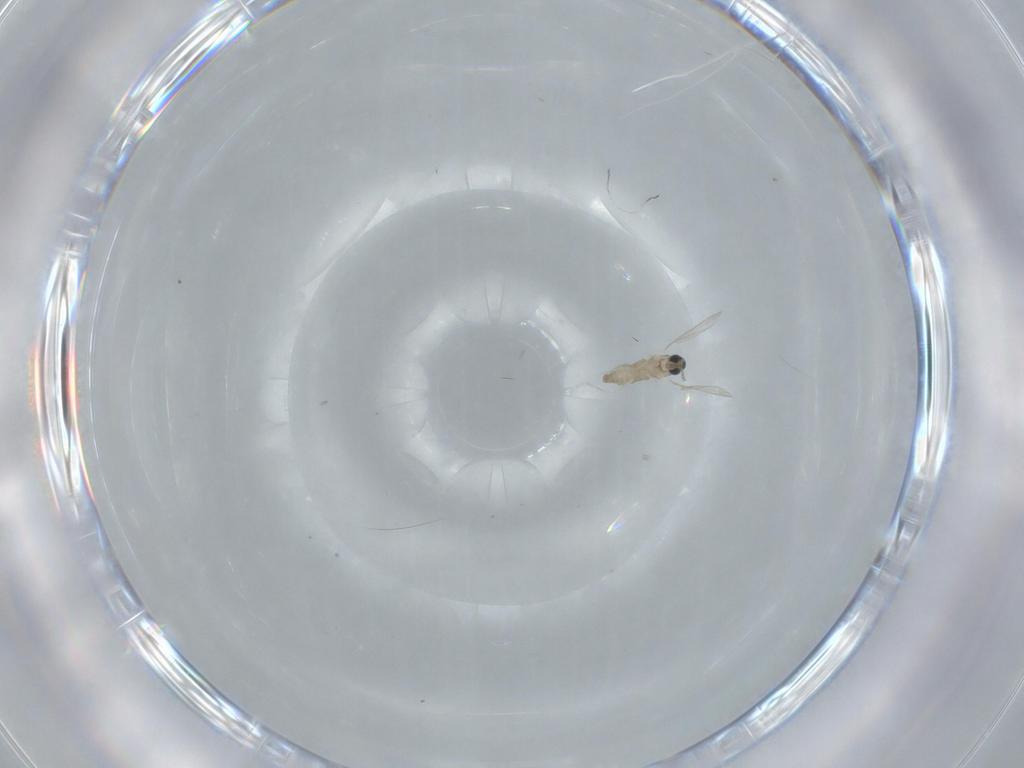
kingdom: Animalia
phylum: Arthropoda
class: Insecta
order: Diptera
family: Cecidomyiidae
